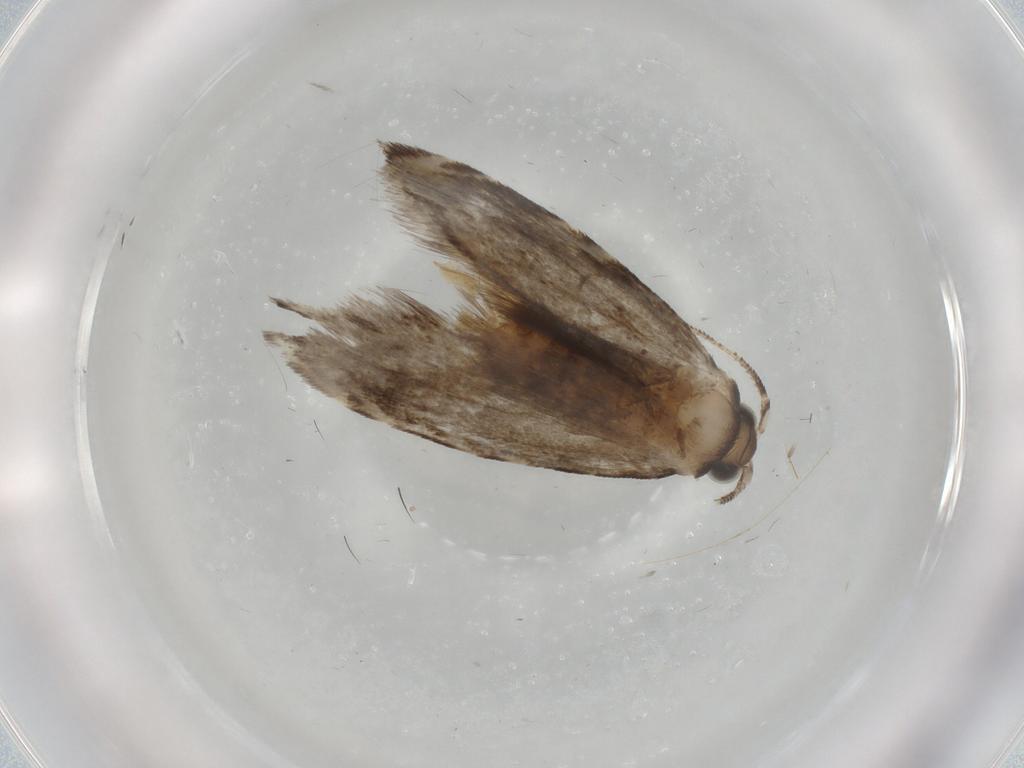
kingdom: Animalia
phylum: Arthropoda
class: Insecta
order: Lepidoptera
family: Tineidae
